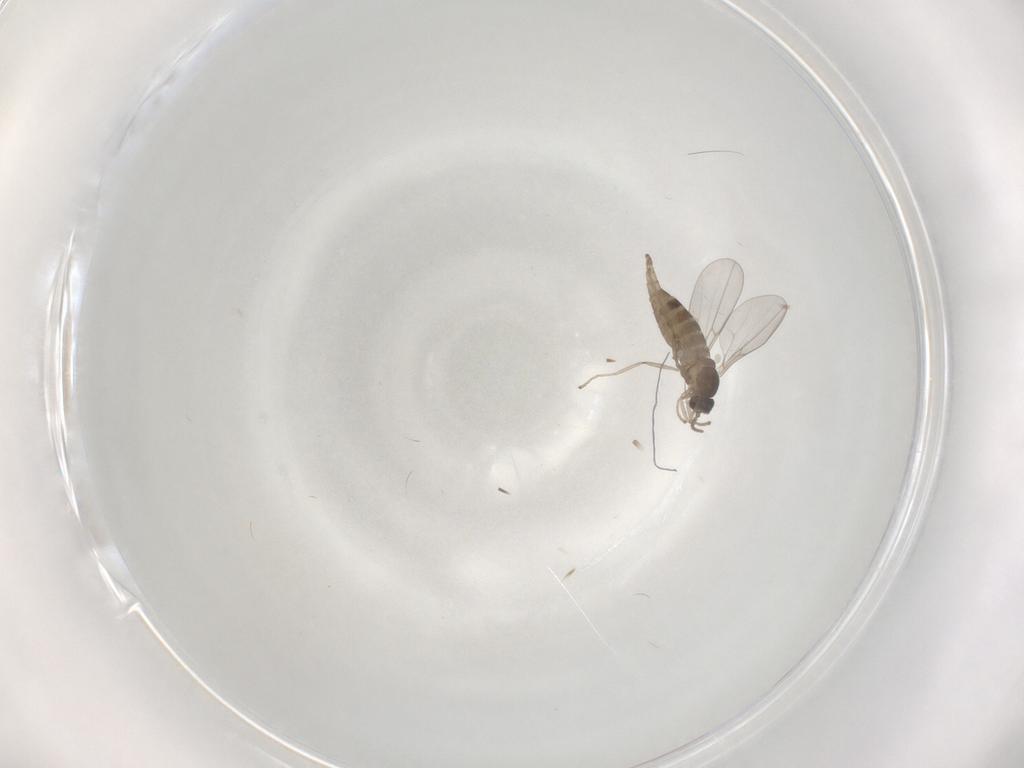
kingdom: Animalia
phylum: Arthropoda
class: Insecta
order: Diptera
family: Cecidomyiidae
